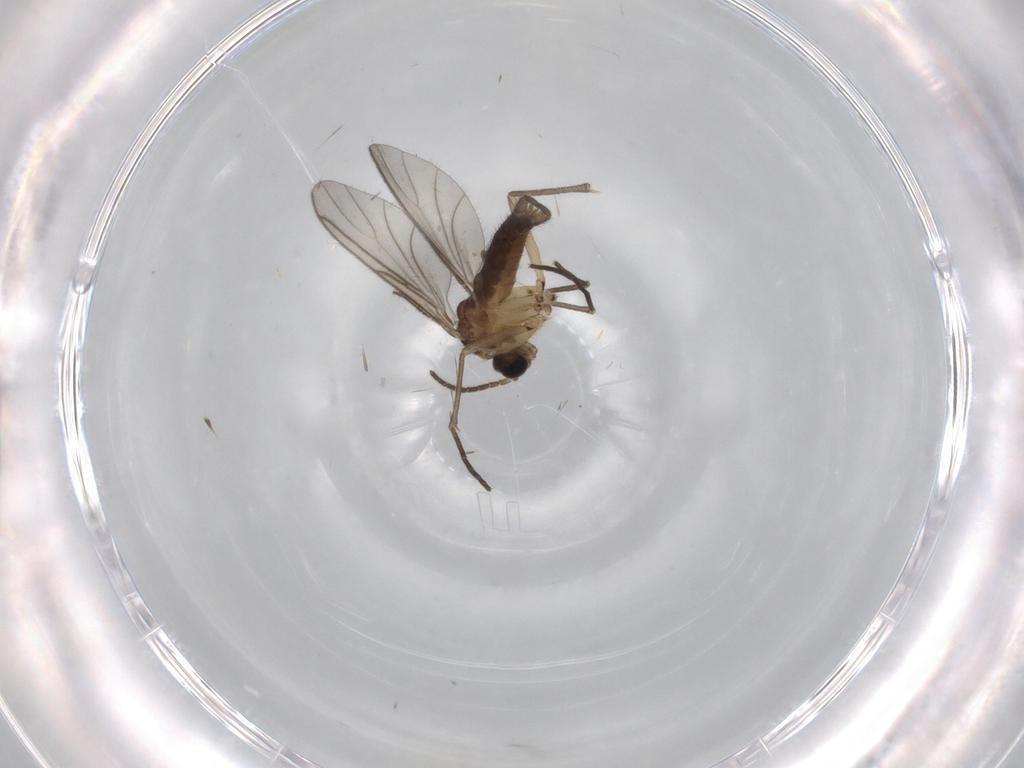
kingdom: Animalia
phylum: Arthropoda
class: Insecta
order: Diptera
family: Sciaridae
